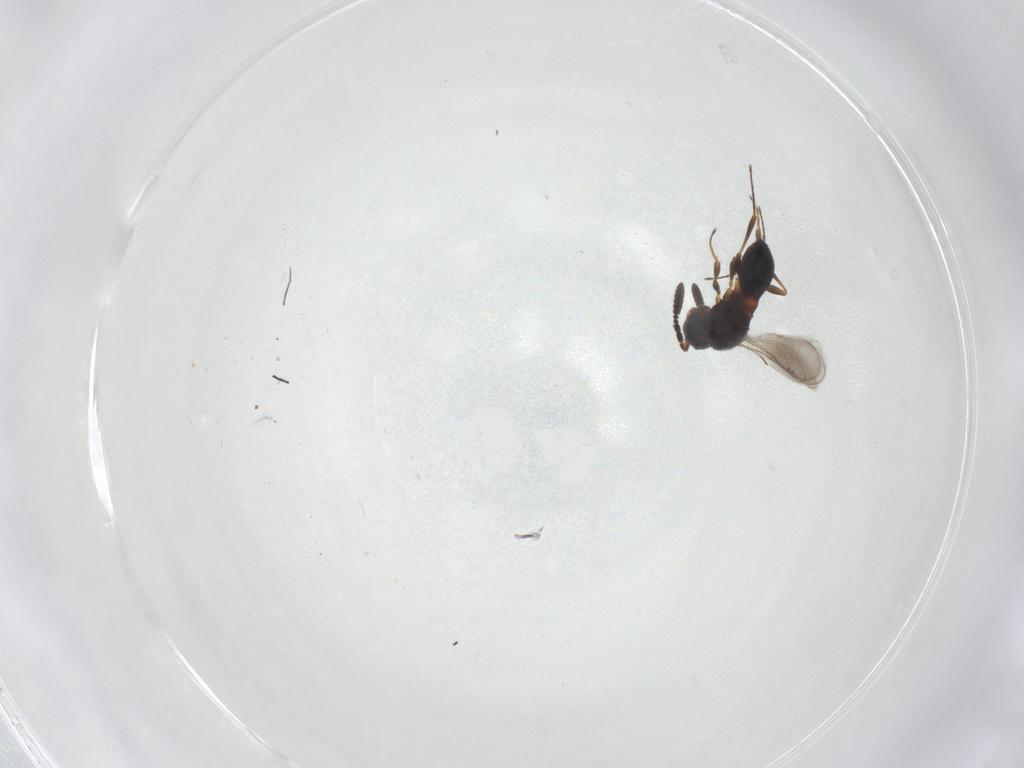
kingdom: Animalia
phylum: Arthropoda
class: Insecta
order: Hymenoptera
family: Scelionidae
